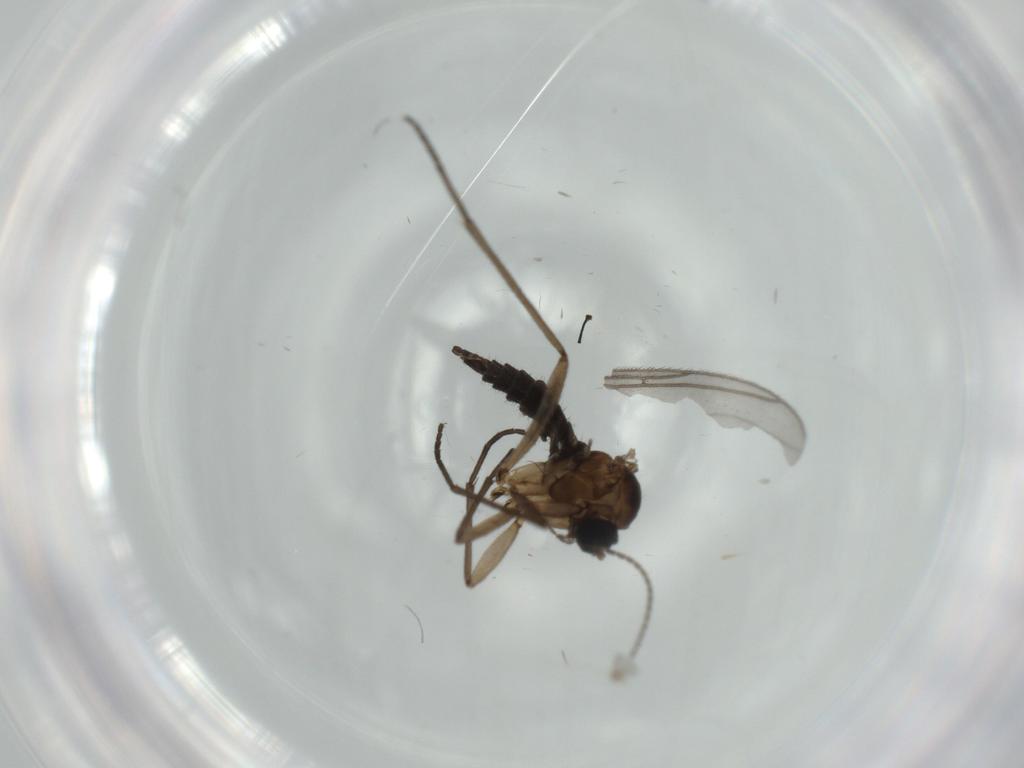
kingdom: Animalia
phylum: Arthropoda
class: Insecta
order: Diptera
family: Sciaridae
